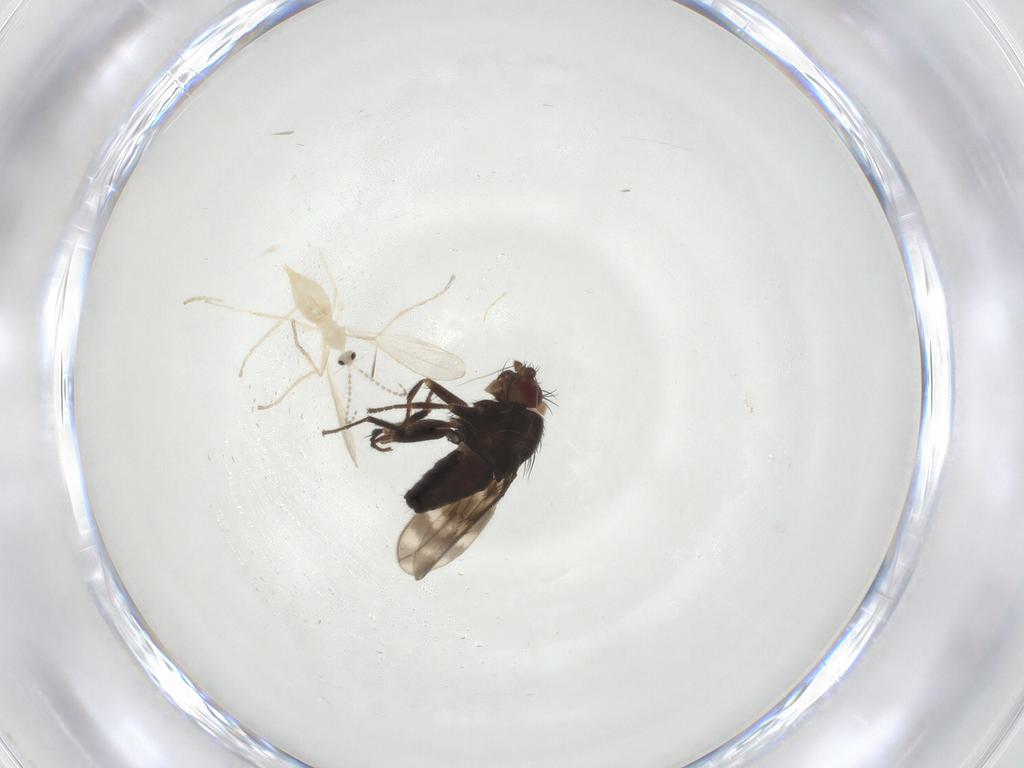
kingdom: Animalia
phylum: Arthropoda
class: Insecta
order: Diptera
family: Sphaeroceridae
